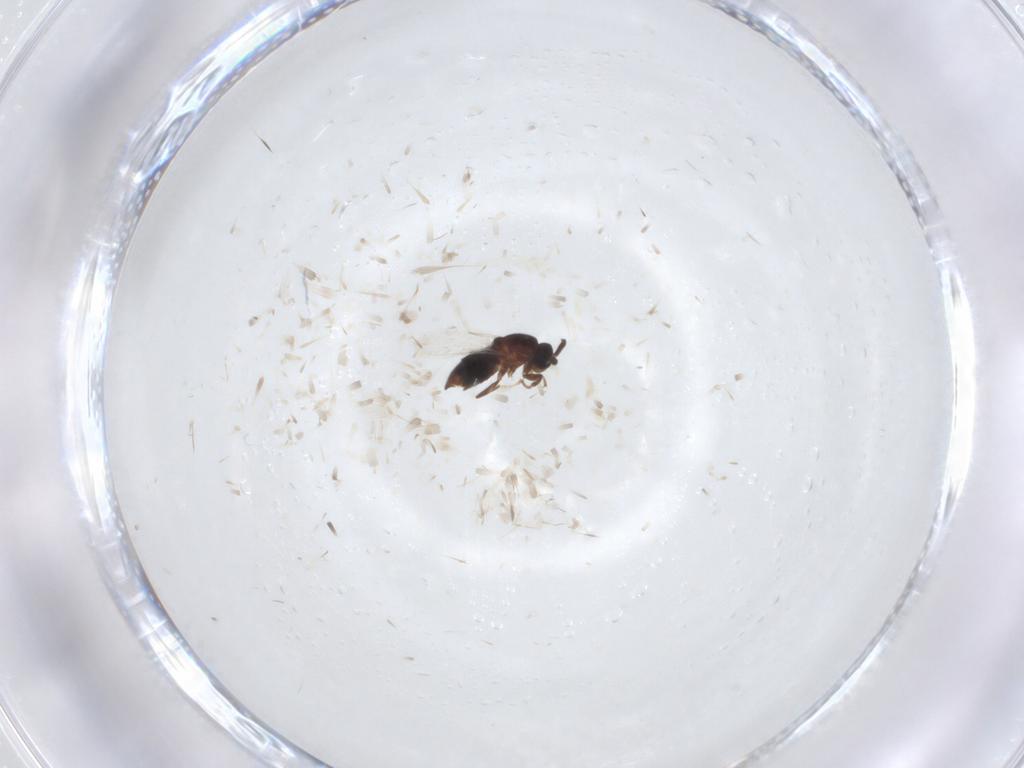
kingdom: Animalia
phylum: Arthropoda
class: Insecta
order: Diptera
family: Scatopsidae
